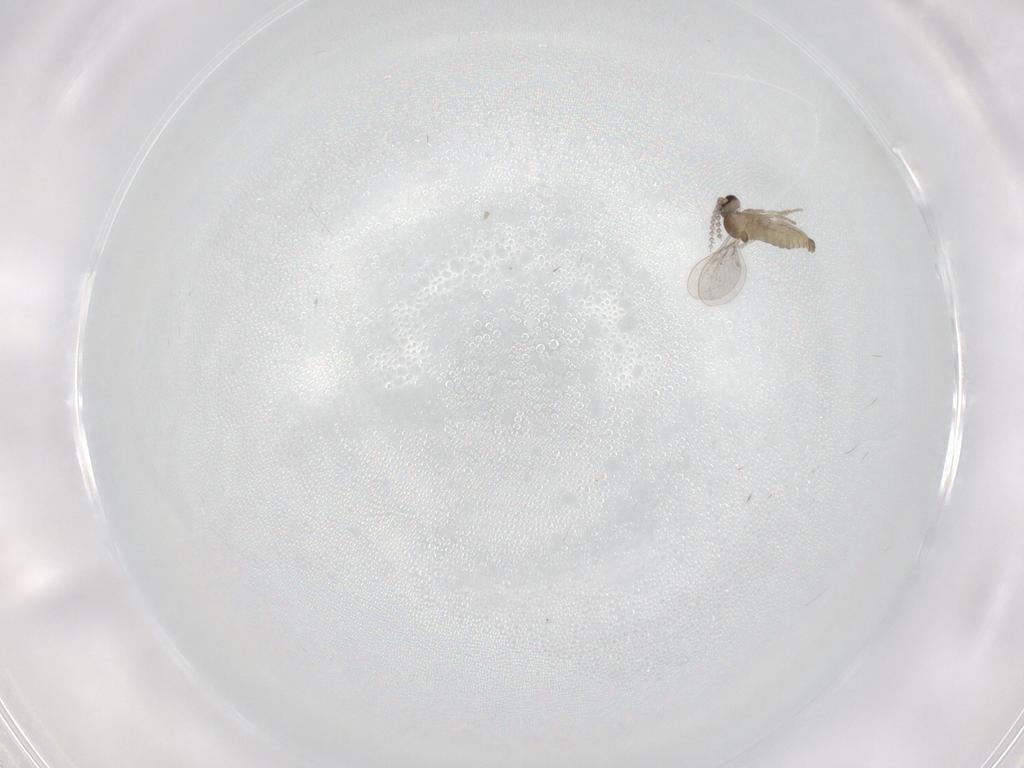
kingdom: Animalia
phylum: Arthropoda
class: Insecta
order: Diptera
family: Cecidomyiidae
